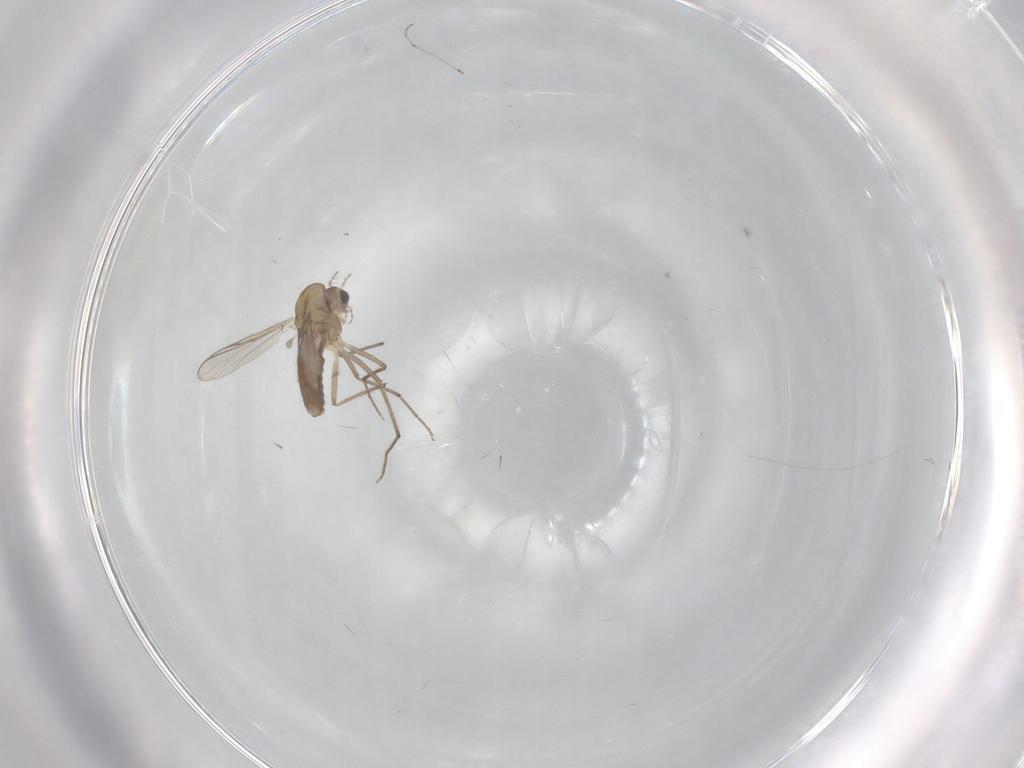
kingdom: Animalia
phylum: Arthropoda
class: Insecta
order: Diptera
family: Chironomidae
